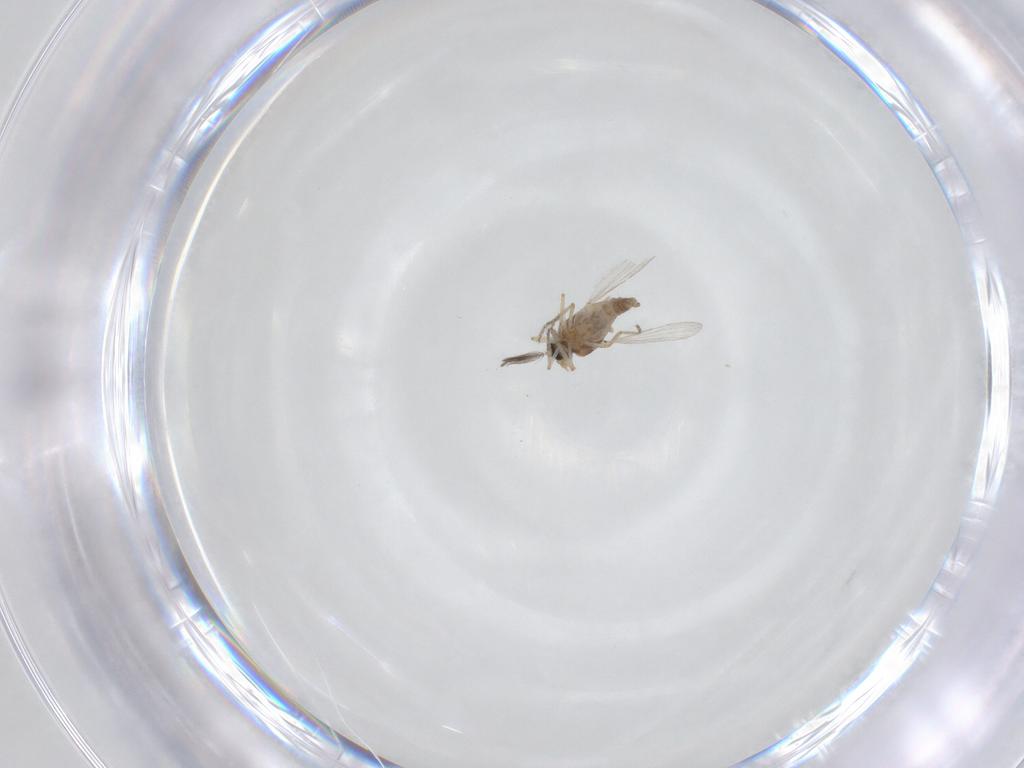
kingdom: Animalia
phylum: Arthropoda
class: Insecta
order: Diptera
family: Ceratopogonidae
